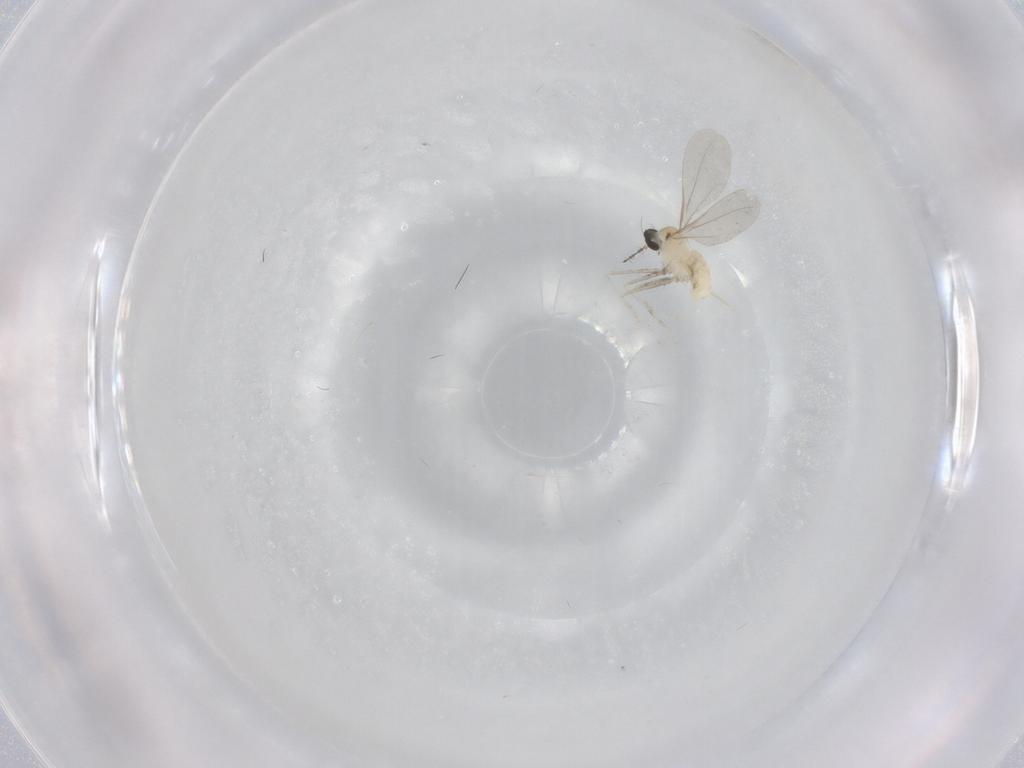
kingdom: Animalia
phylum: Arthropoda
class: Insecta
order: Diptera
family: Cecidomyiidae
